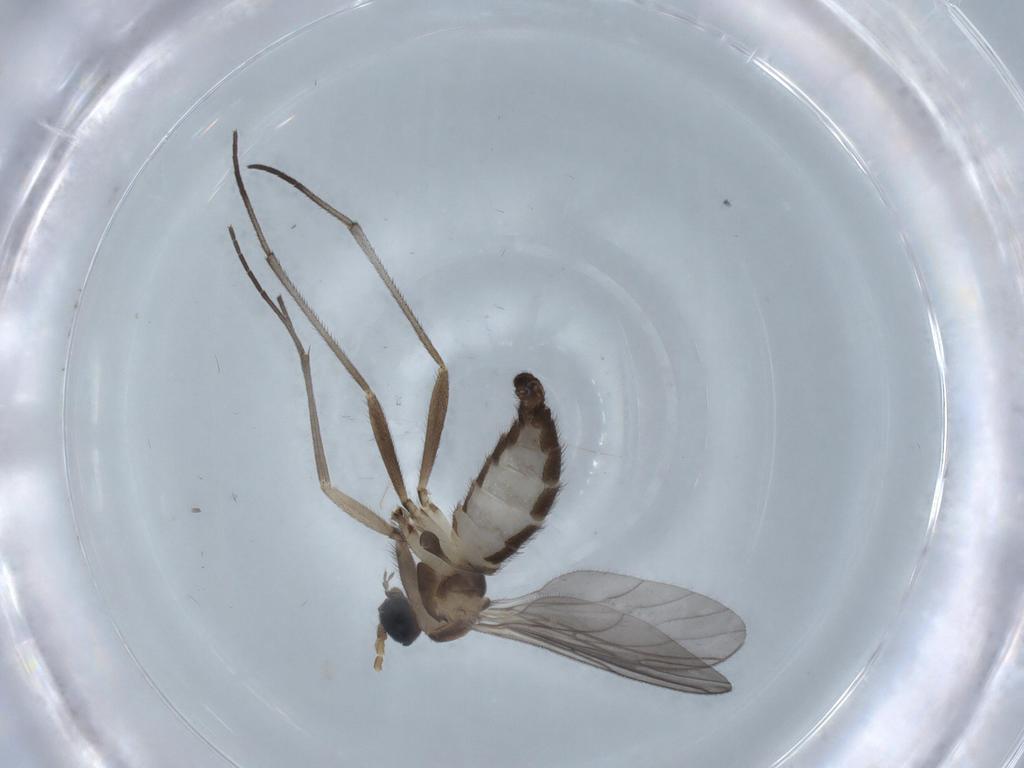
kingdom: Animalia
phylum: Arthropoda
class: Insecta
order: Diptera
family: Sciaridae
